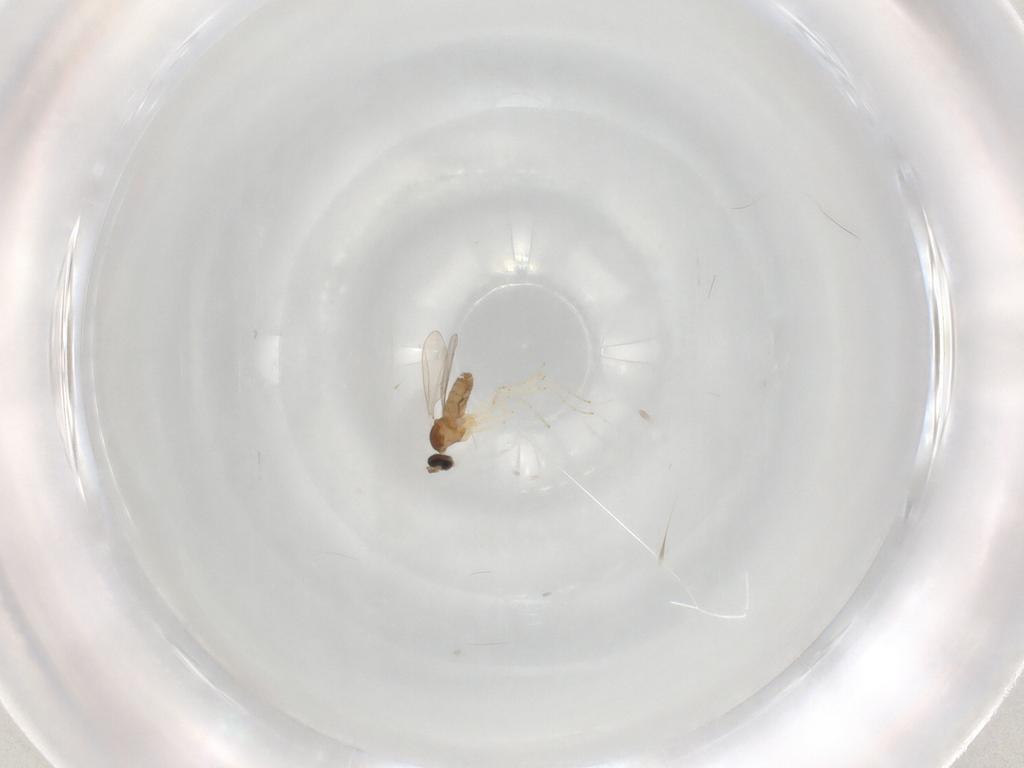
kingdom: Animalia
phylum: Arthropoda
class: Insecta
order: Diptera
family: Cecidomyiidae
